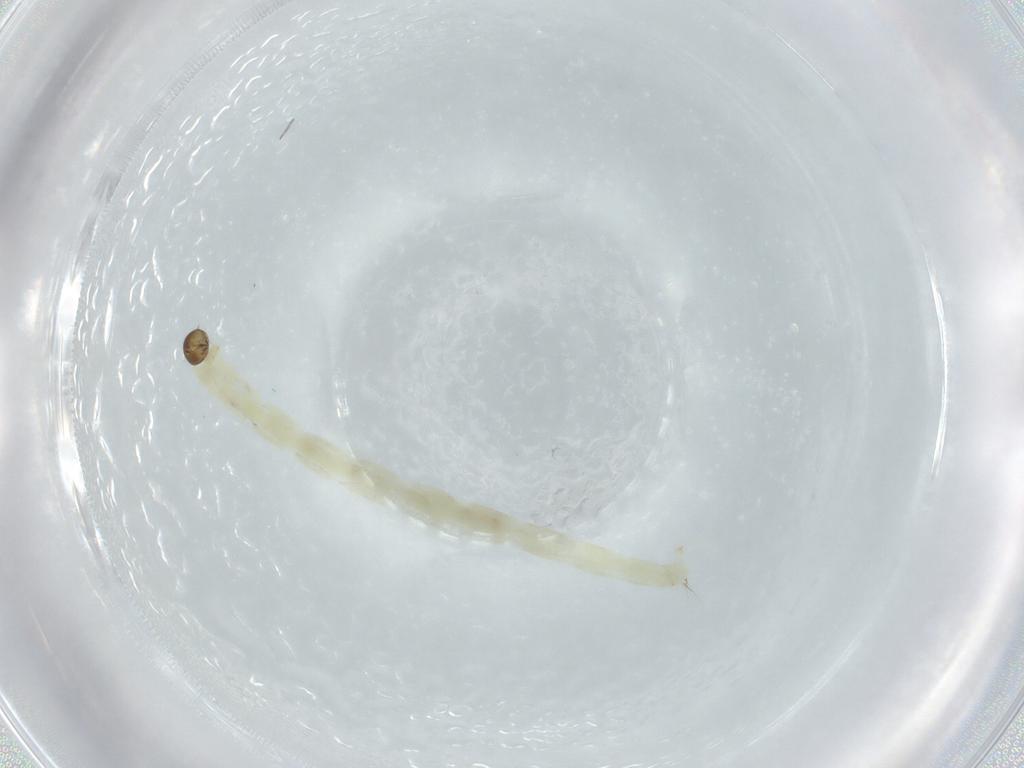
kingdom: Animalia
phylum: Arthropoda
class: Insecta
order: Diptera
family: Chironomidae
